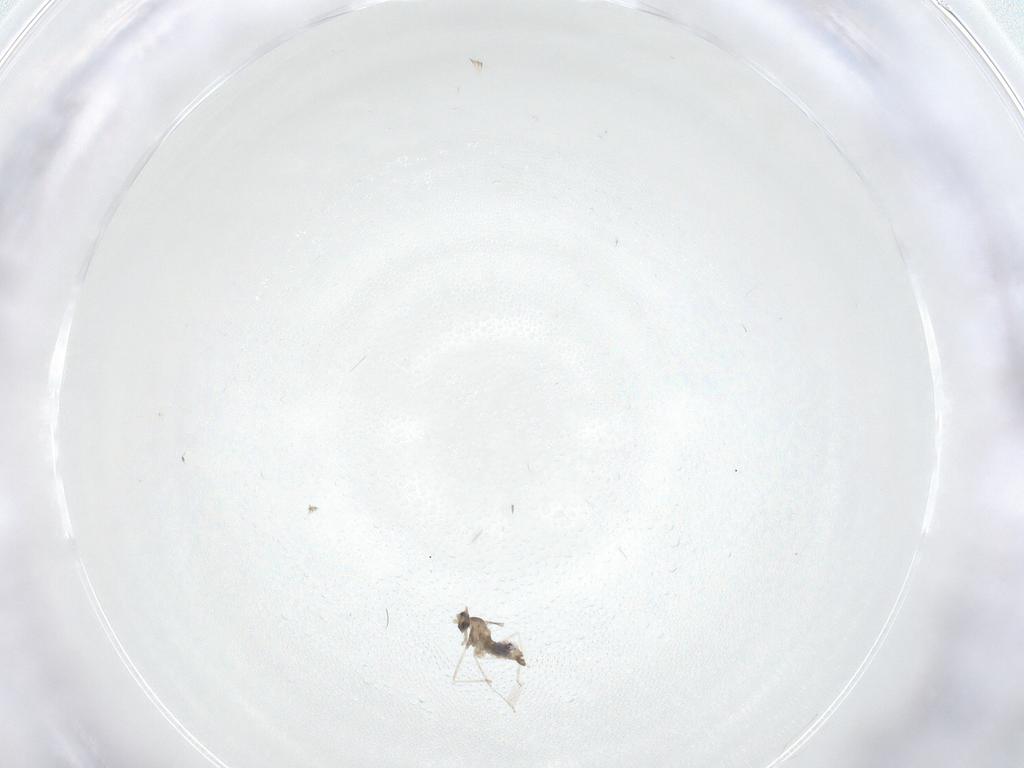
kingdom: Animalia
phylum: Arthropoda
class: Insecta
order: Diptera
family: Cecidomyiidae
